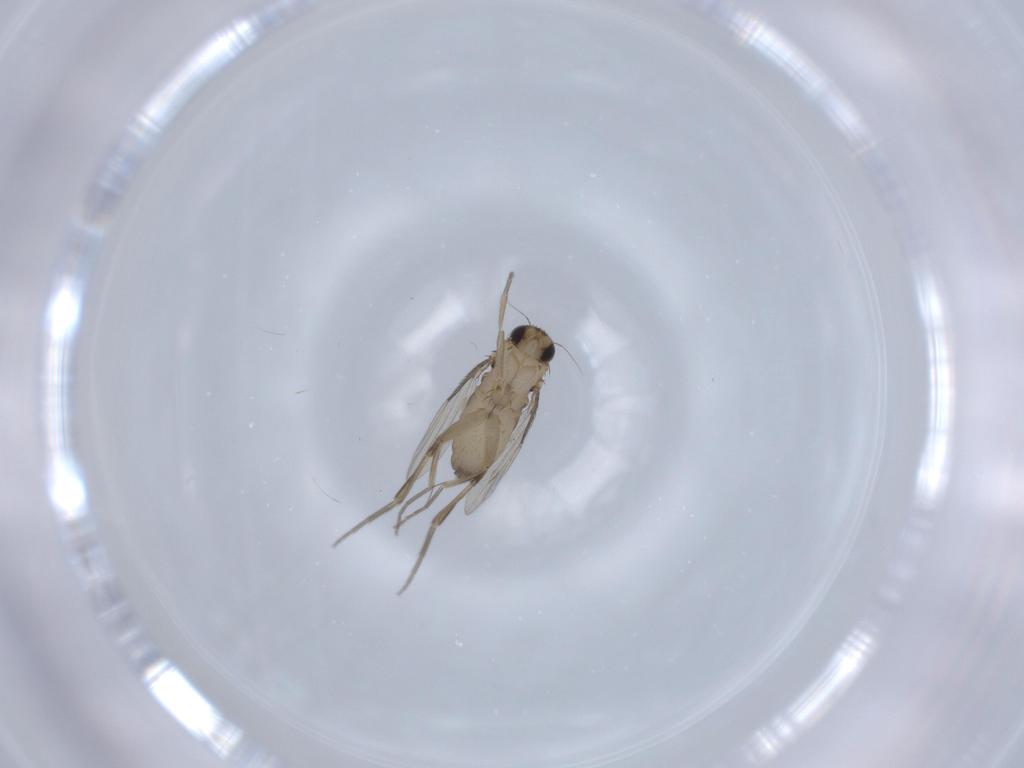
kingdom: Animalia
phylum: Arthropoda
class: Insecta
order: Diptera
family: Phoridae
